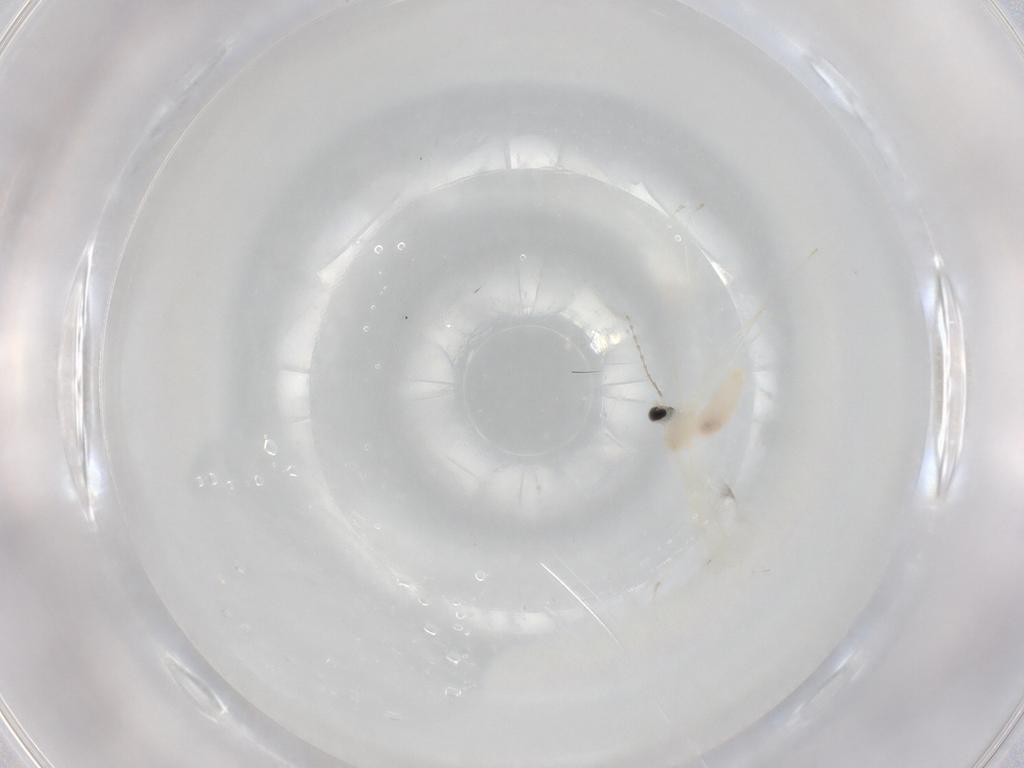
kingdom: Animalia
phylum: Arthropoda
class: Insecta
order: Diptera
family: Cecidomyiidae
